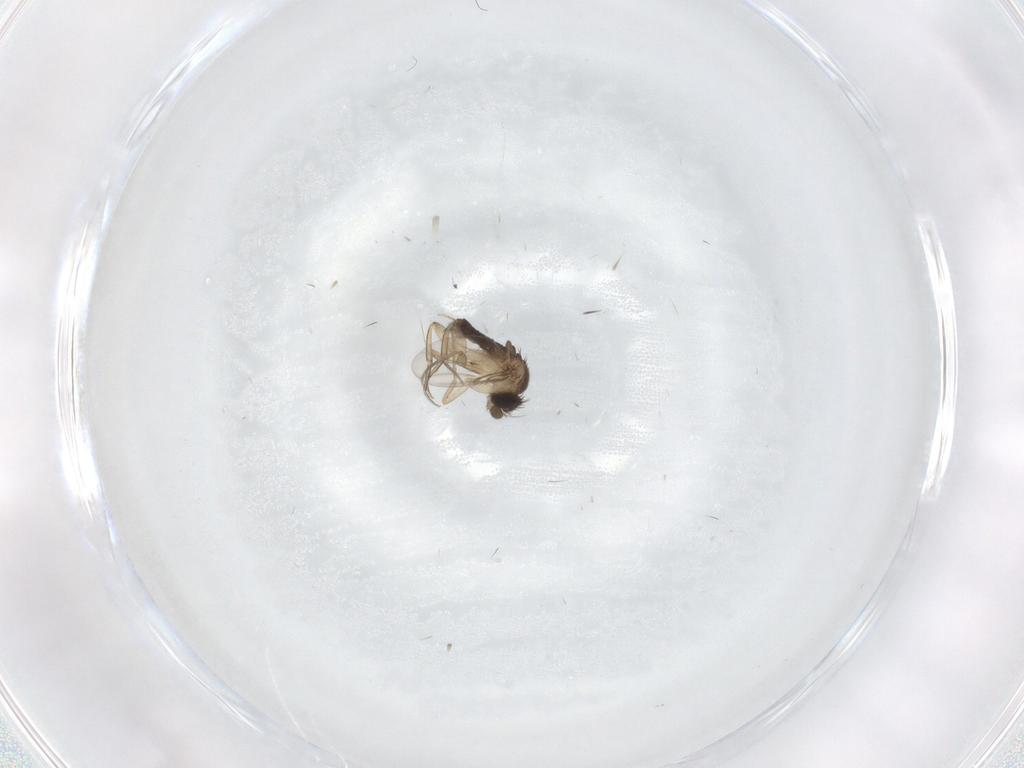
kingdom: Animalia
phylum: Arthropoda
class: Insecta
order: Diptera
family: Phoridae
